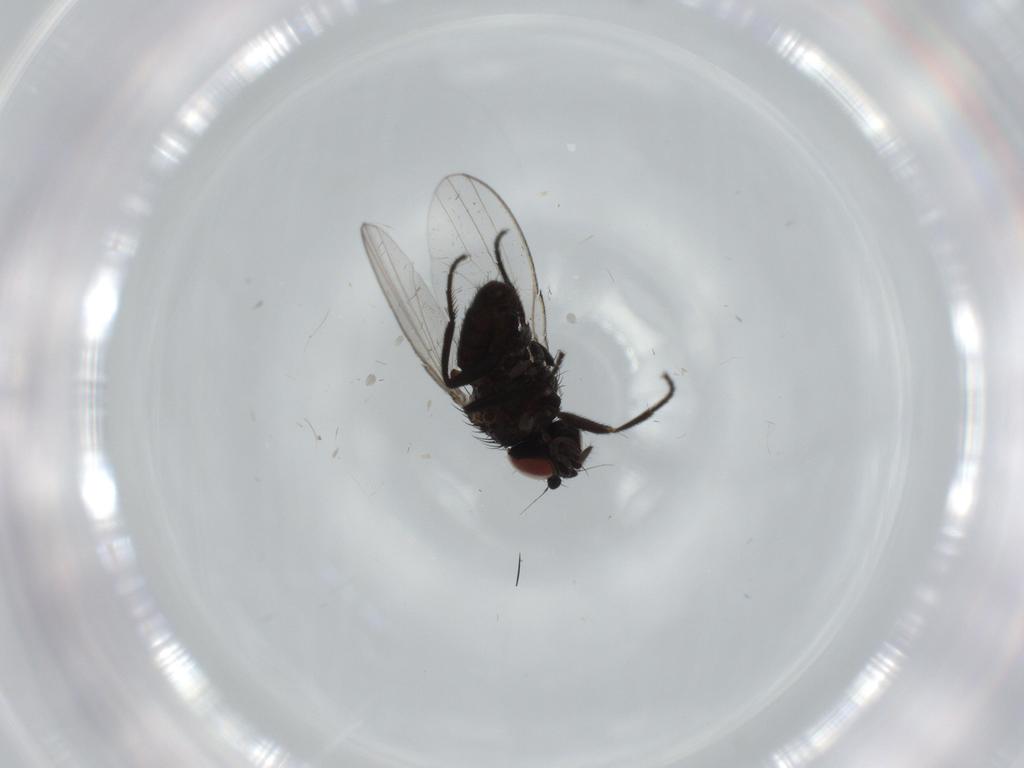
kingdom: Animalia
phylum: Arthropoda
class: Insecta
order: Diptera
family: Milichiidae
